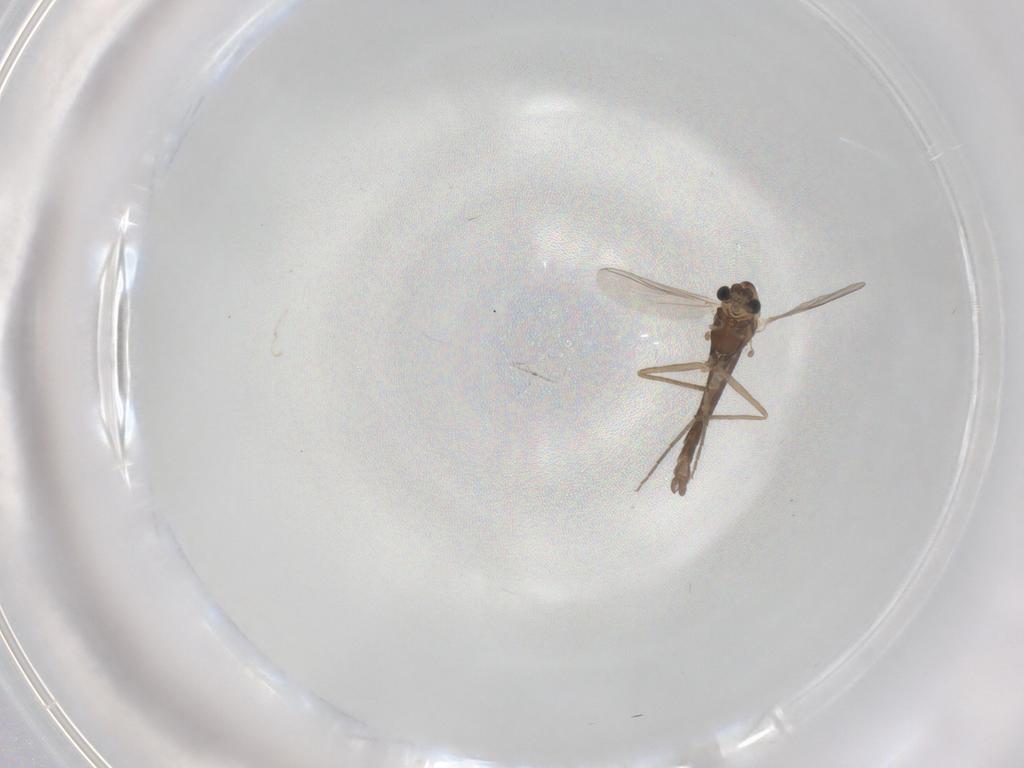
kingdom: Animalia
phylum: Arthropoda
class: Insecta
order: Diptera
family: Chironomidae
